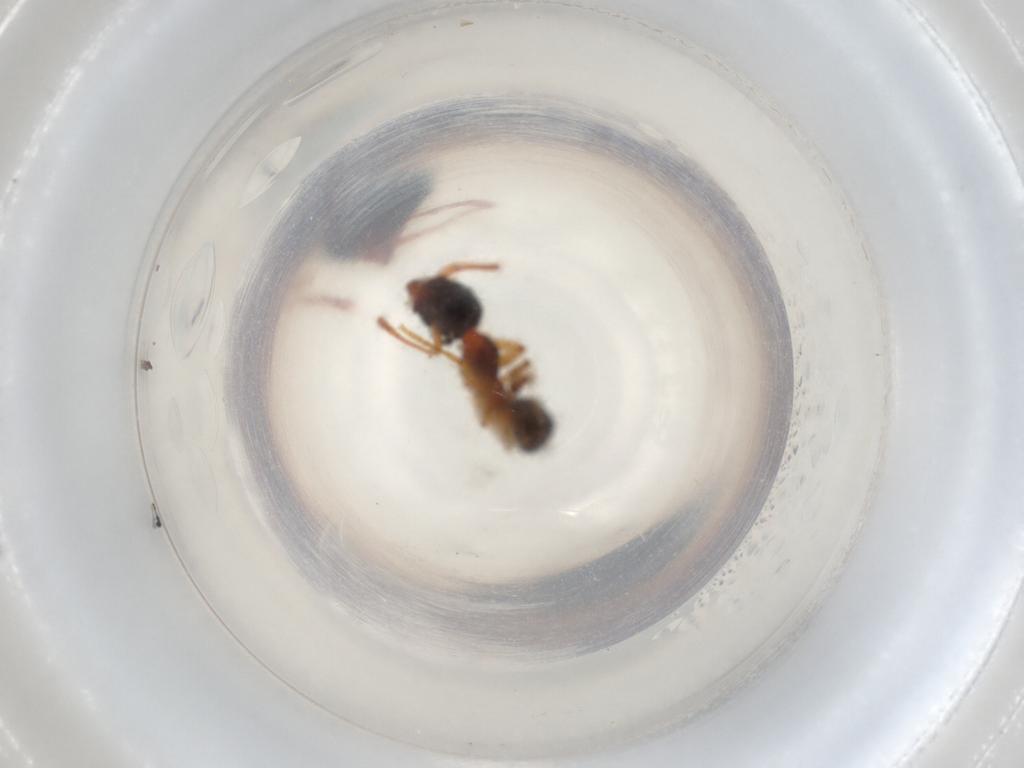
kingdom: Animalia
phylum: Arthropoda
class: Insecta
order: Hymenoptera
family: Formicidae
